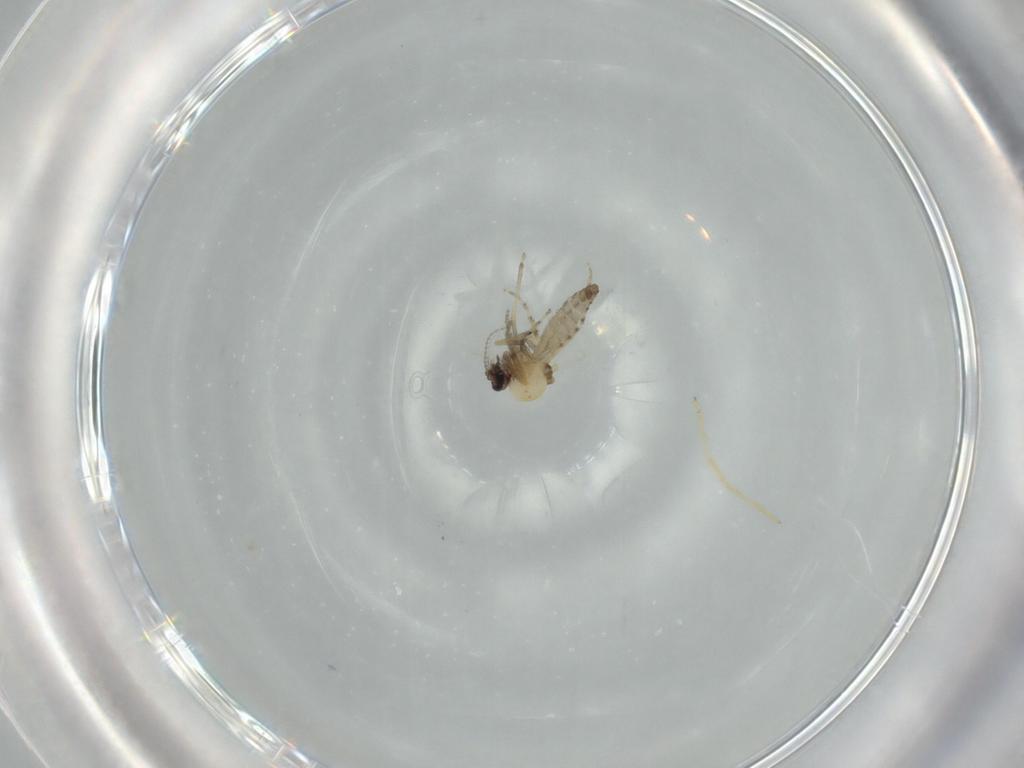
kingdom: Animalia
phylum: Arthropoda
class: Insecta
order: Diptera
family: Chironomidae
